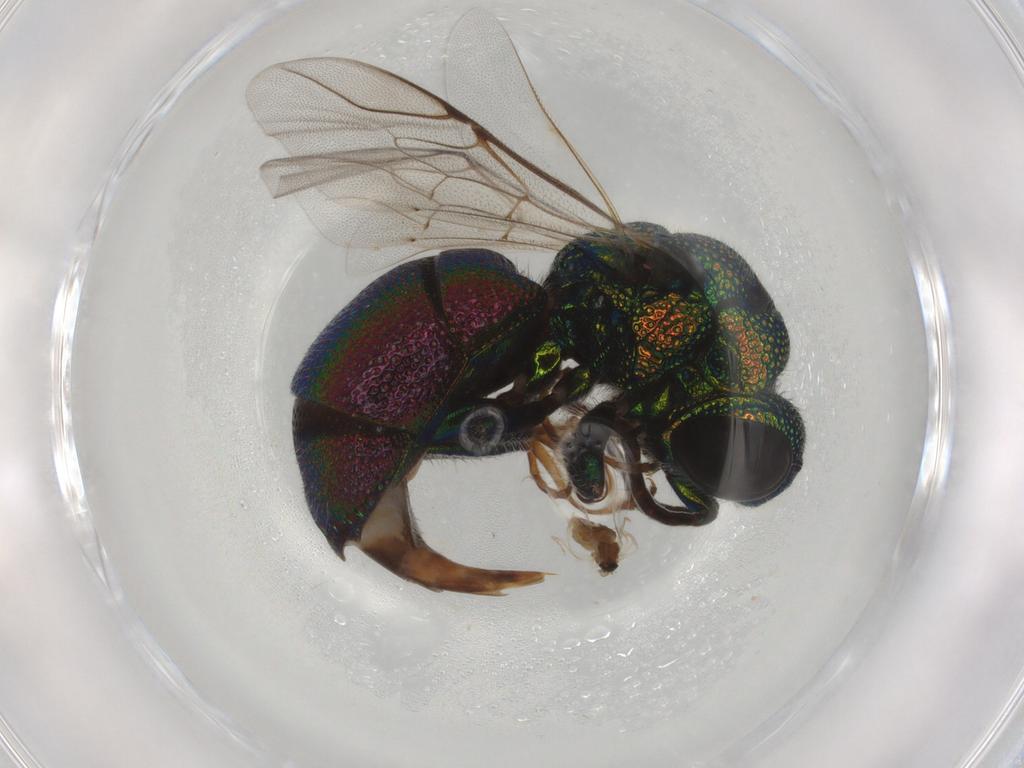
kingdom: Animalia
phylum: Arthropoda
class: Insecta
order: Hymenoptera
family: Chrysididae
